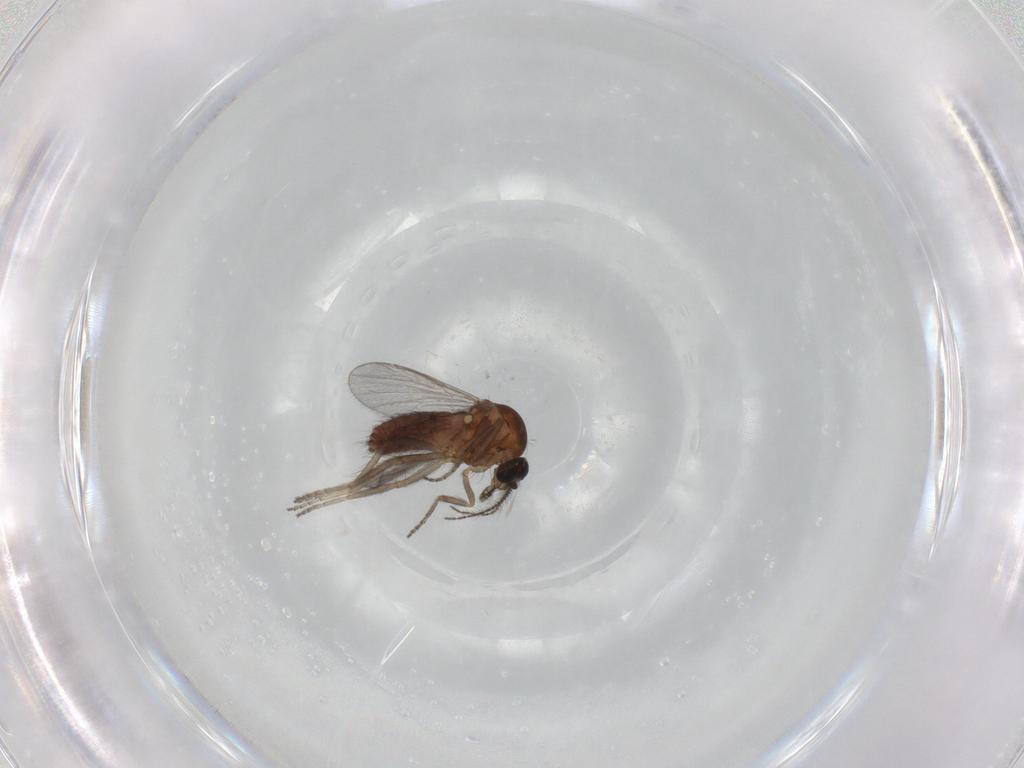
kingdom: Animalia
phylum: Arthropoda
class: Insecta
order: Diptera
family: Ceratopogonidae
